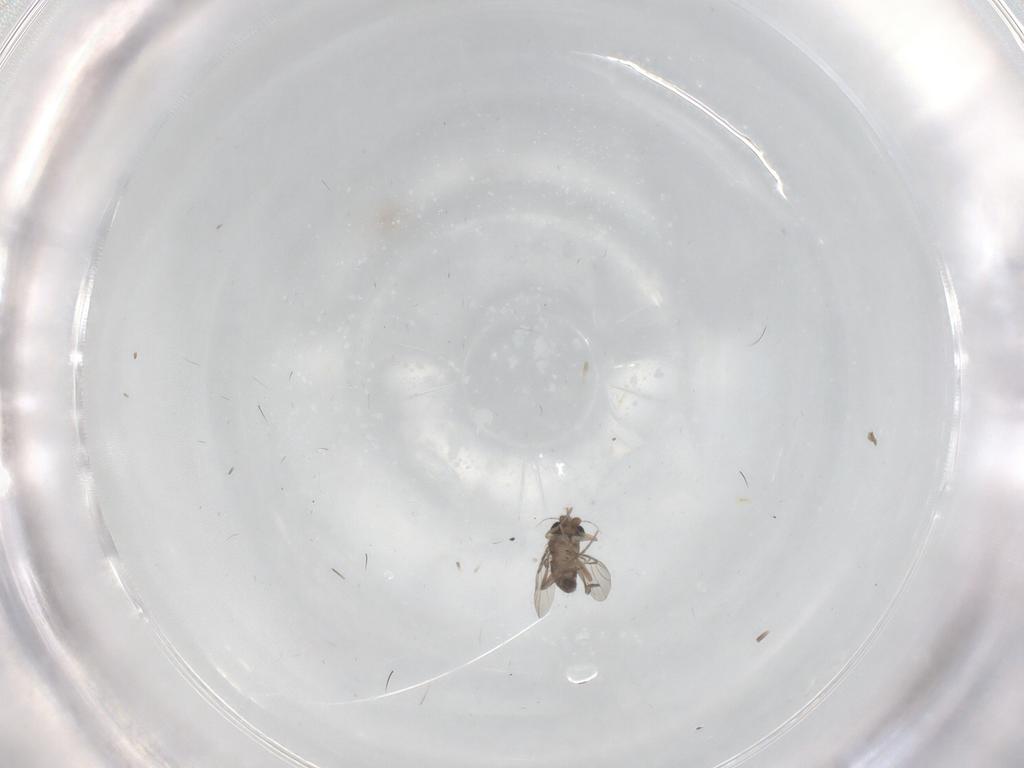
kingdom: Animalia
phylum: Arthropoda
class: Insecta
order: Diptera
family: Phoridae
